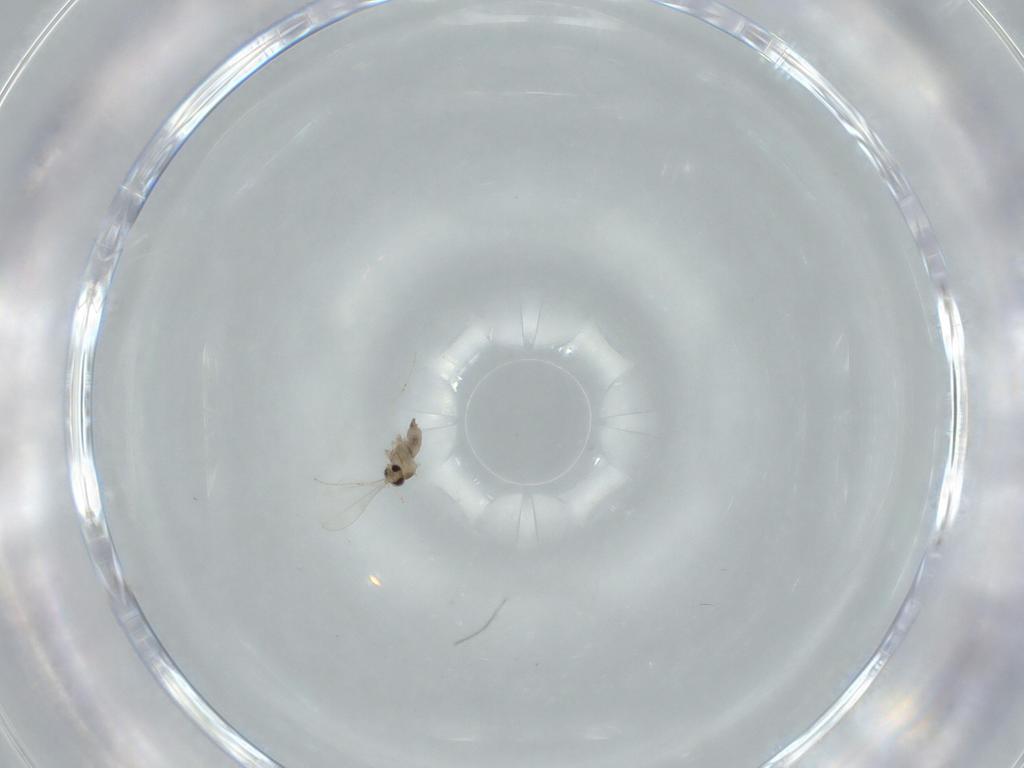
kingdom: Animalia
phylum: Arthropoda
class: Insecta
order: Diptera
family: Cecidomyiidae
